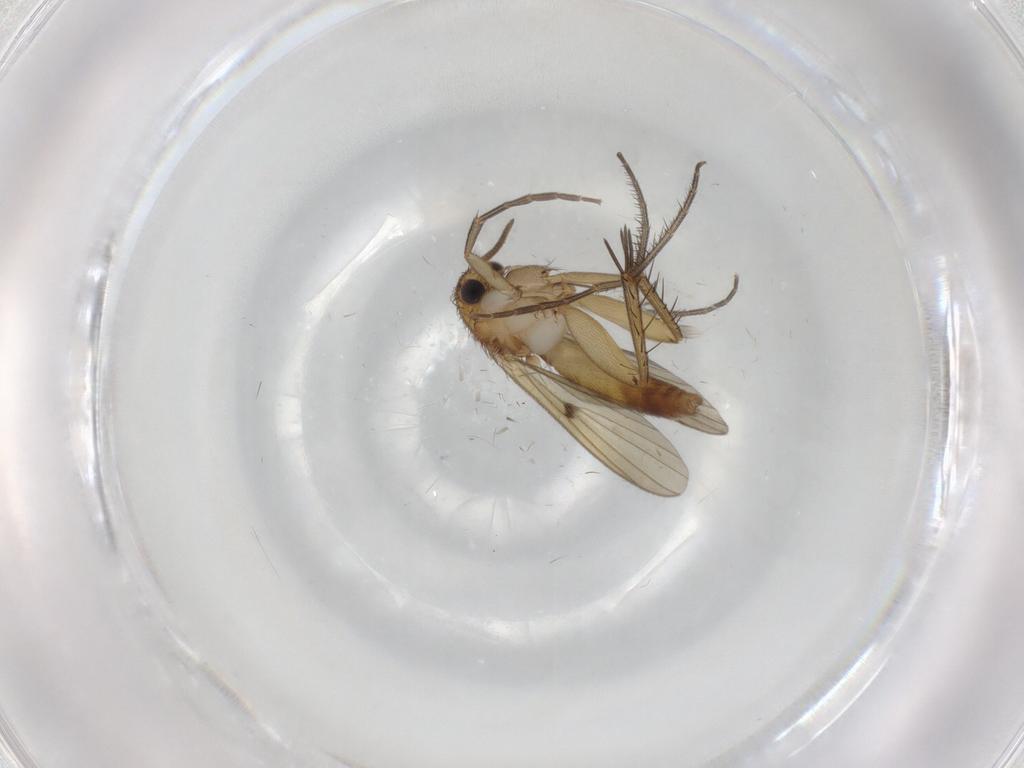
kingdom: Animalia
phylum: Arthropoda
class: Insecta
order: Diptera
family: Mycetophilidae
